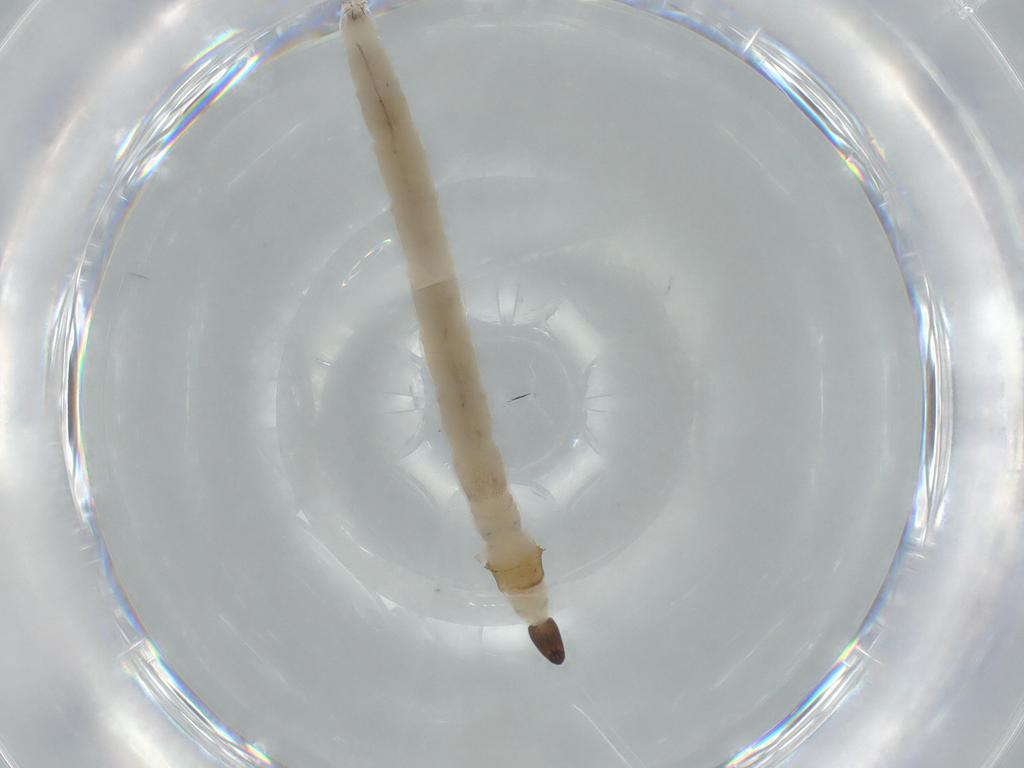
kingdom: Animalia
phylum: Arthropoda
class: Insecta
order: Diptera
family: Ceratopogonidae
